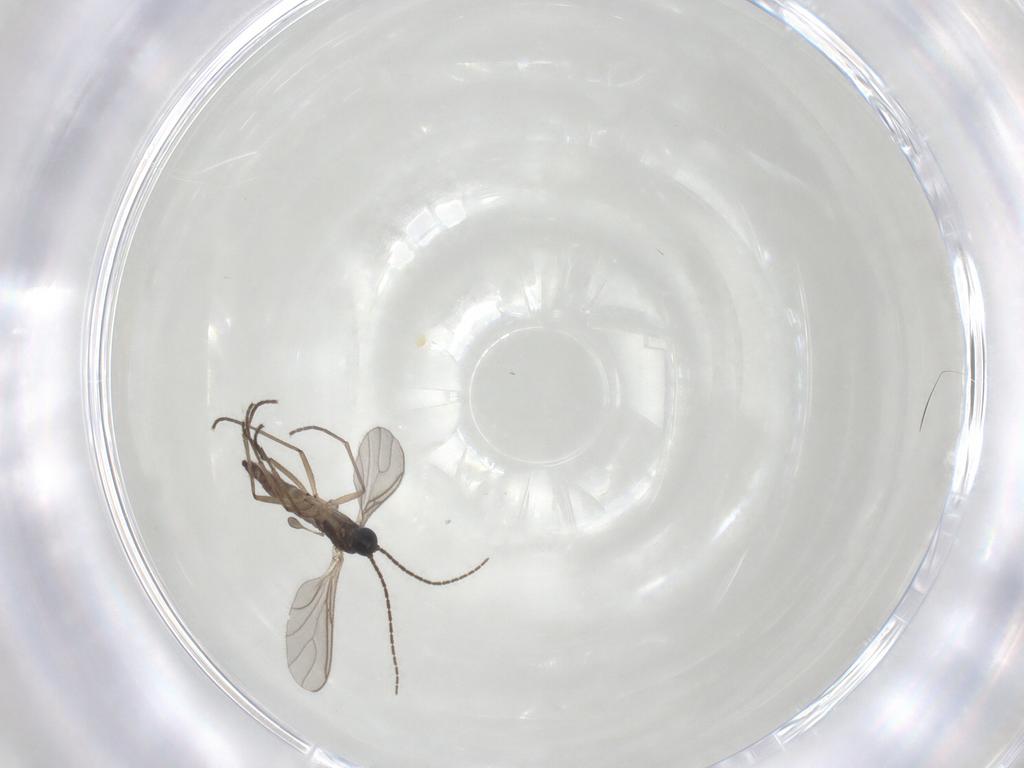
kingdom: Animalia
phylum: Arthropoda
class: Insecta
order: Diptera
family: Sciaridae
